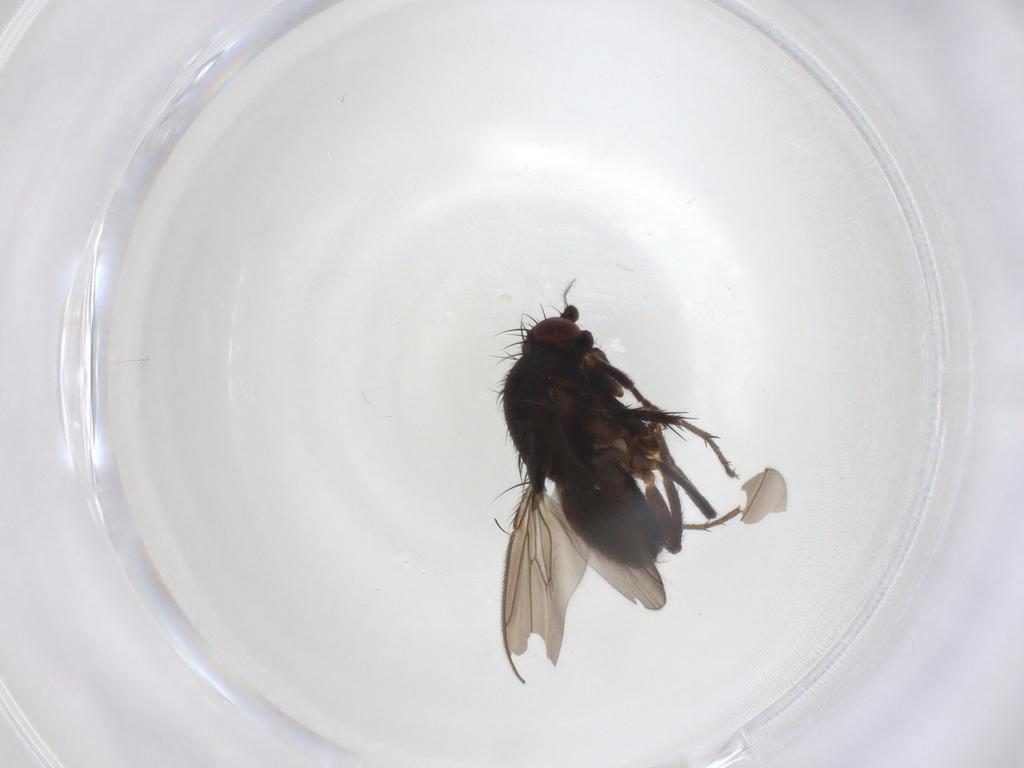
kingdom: Animalia
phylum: Arthropoda
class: Insecta
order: Diptera
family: Sphaeroceridae
